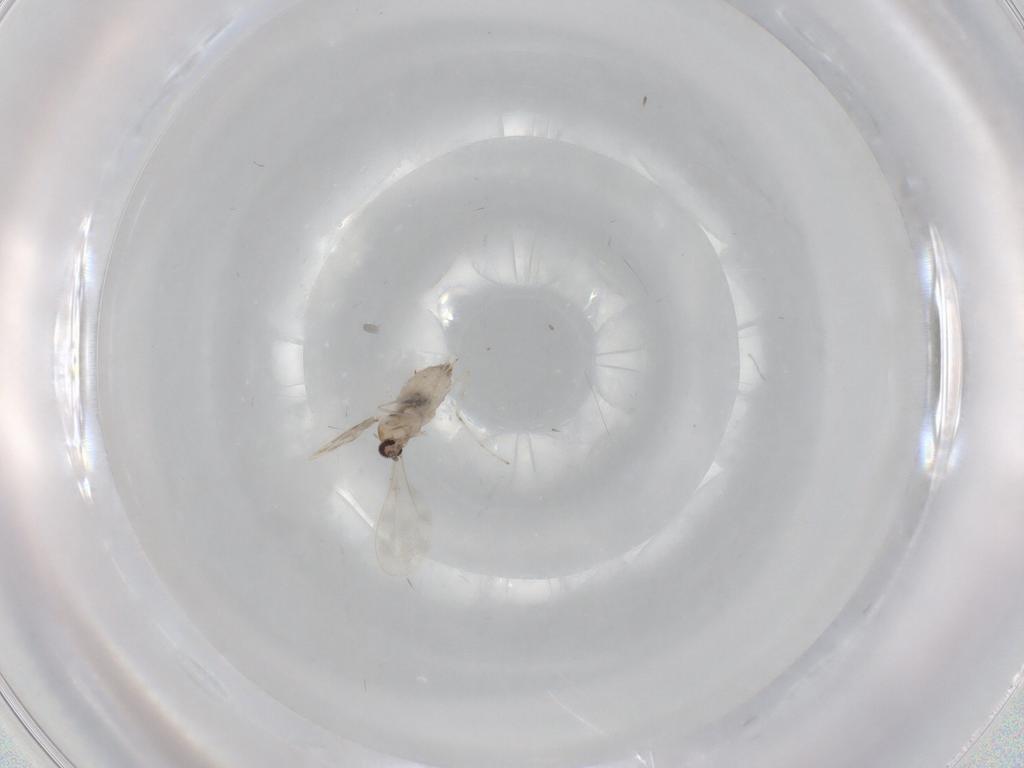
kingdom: Animalia
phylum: Arthropoda
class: Insecta
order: Diptera
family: Cecidomyiidae
